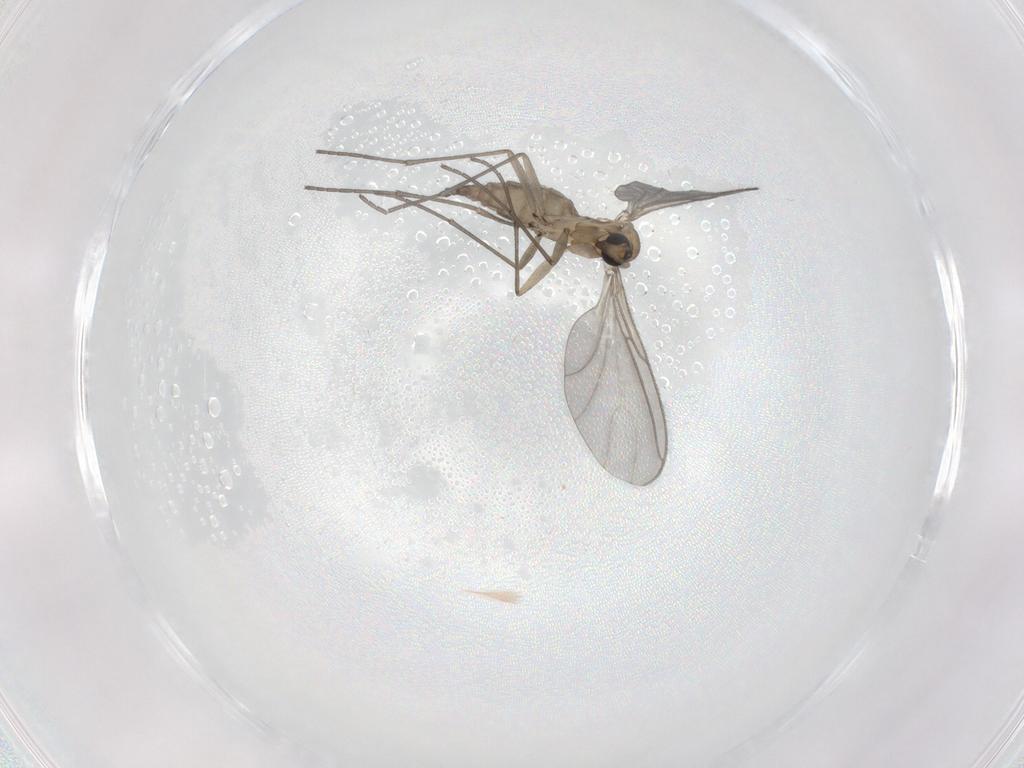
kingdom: Animalia
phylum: Arthropoda
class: Insecta
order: Diptera
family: Sciaridae
